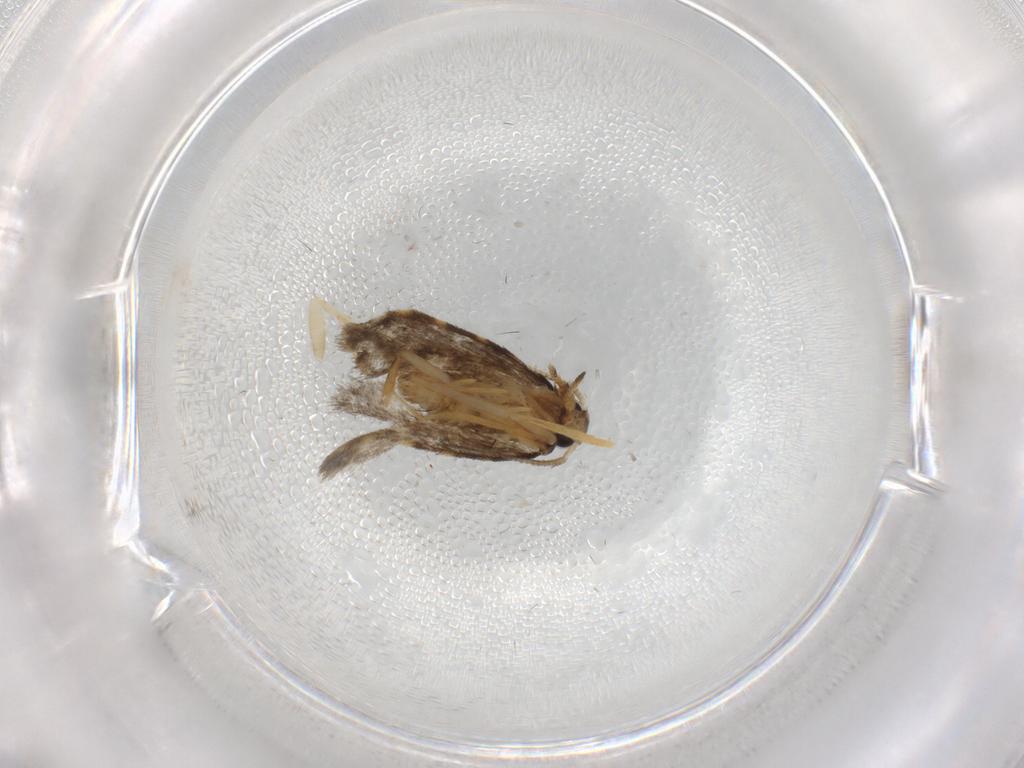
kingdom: Animalia
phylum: Arthropoda
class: Insecta
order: Lepidoptera
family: Psychidae
